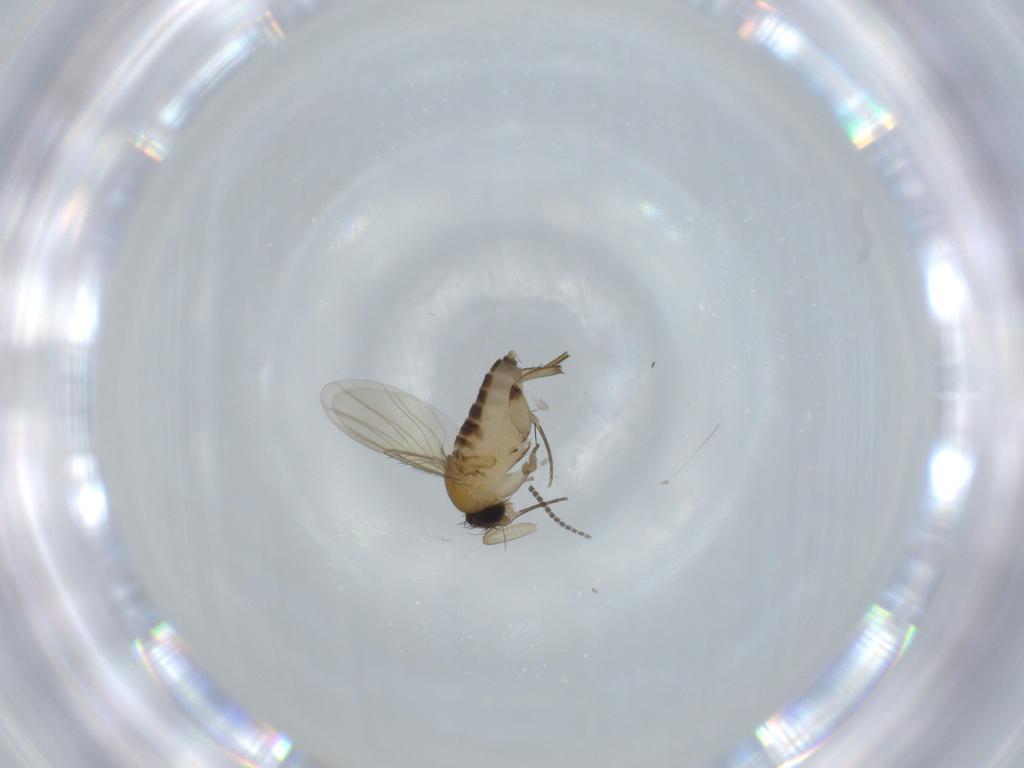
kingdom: Animalia
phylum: Arthropoda
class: Insecta
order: Diptera
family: Phoridae
